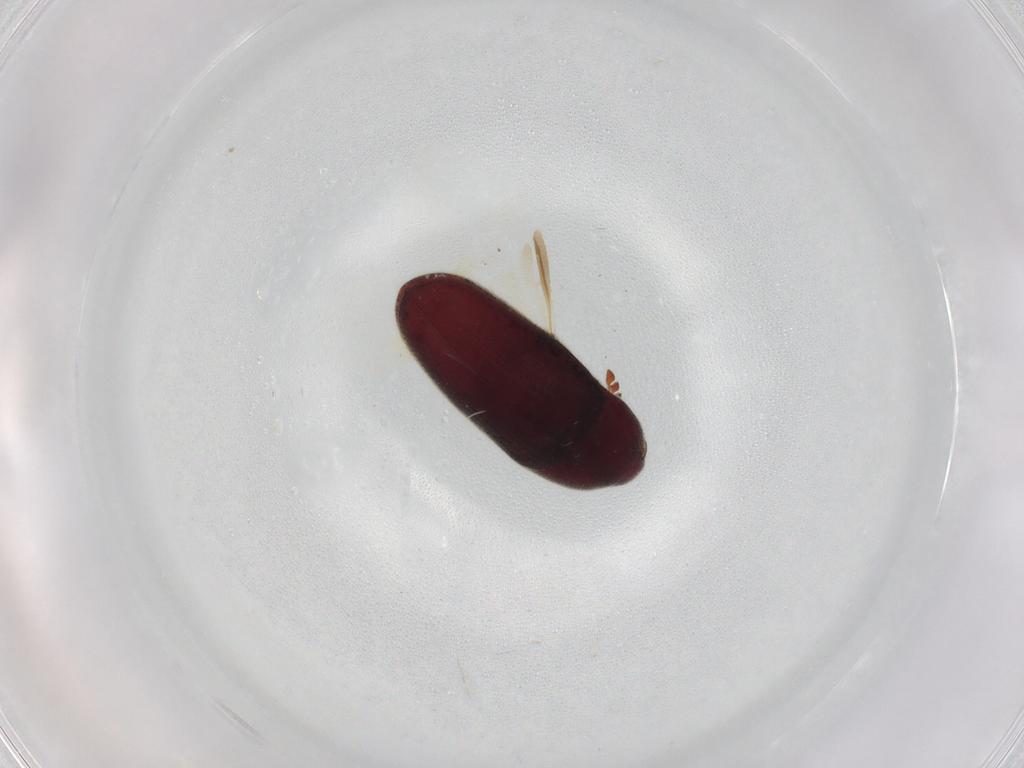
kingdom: Animalia
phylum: Arthropoda
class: Insecta
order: Coleoptera
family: Throscidae
